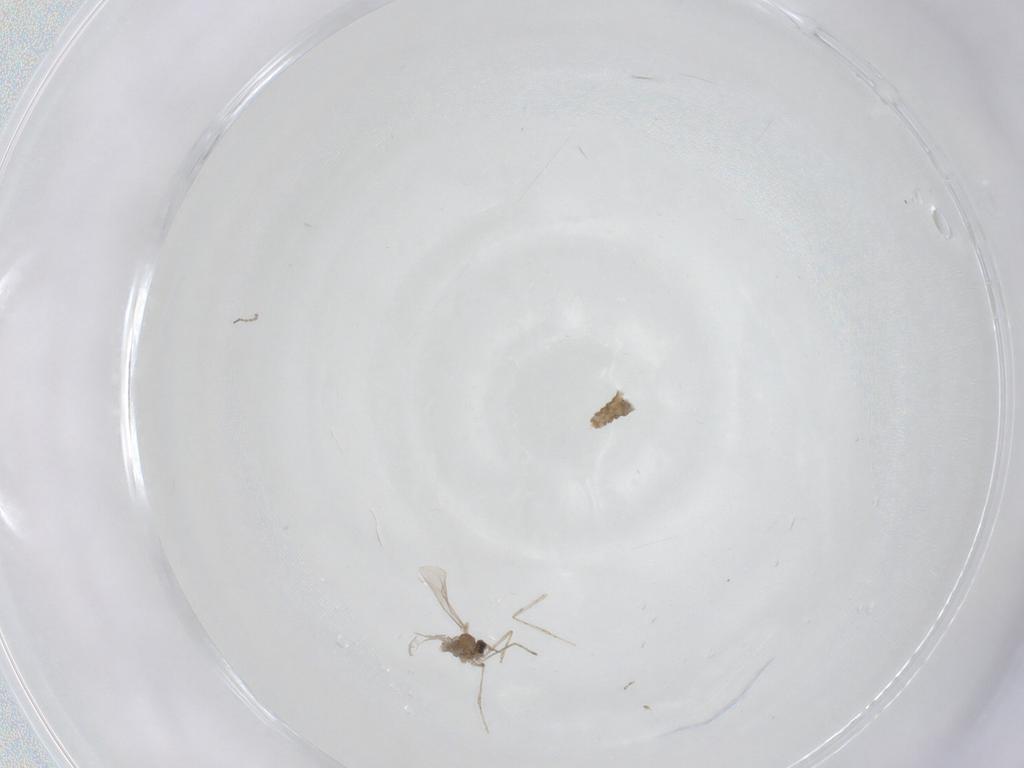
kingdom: Animalia
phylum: Arthropoda
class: Insecta
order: Diptera
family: Cecidomyiidae
